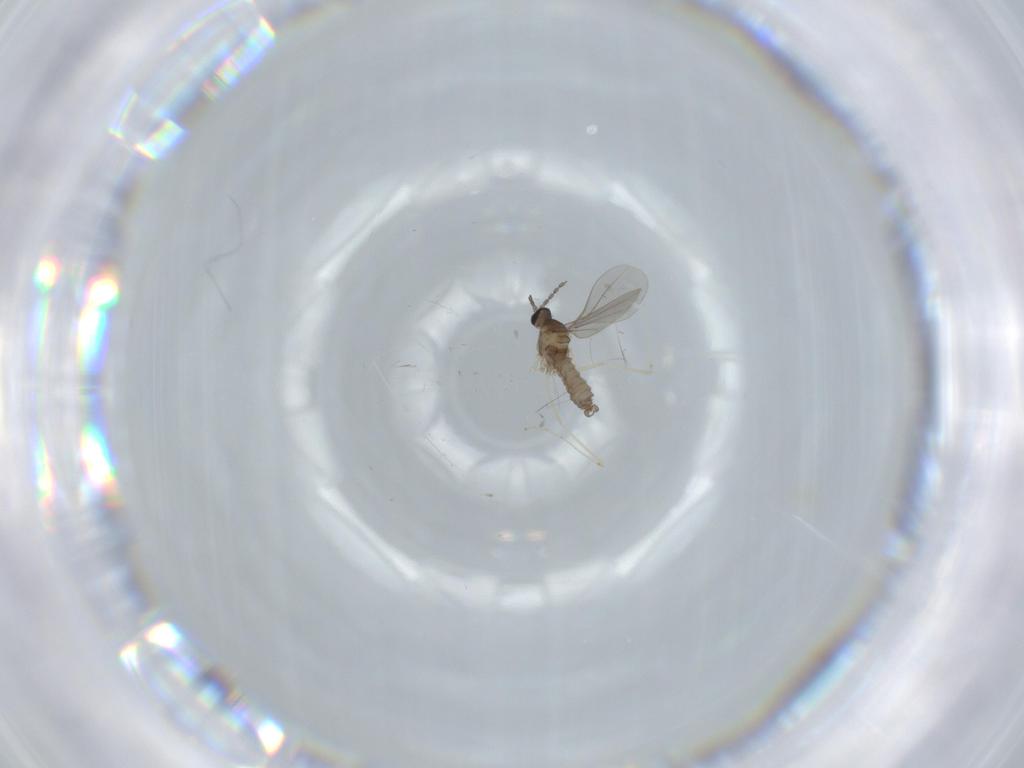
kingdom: Animalia
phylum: Arthropoda
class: Insecta
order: Diptera
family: Cecidomyiidae
